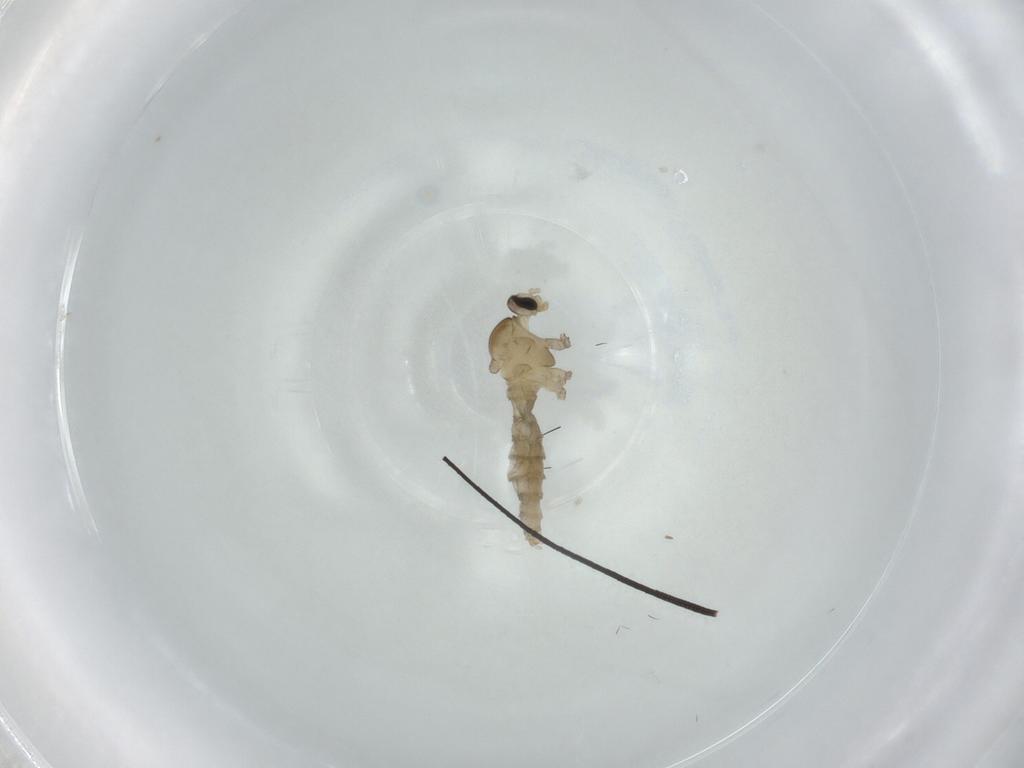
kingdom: Animalia
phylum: Arthropoda
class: Insecta
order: Diptera
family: Cecidomyiidae
